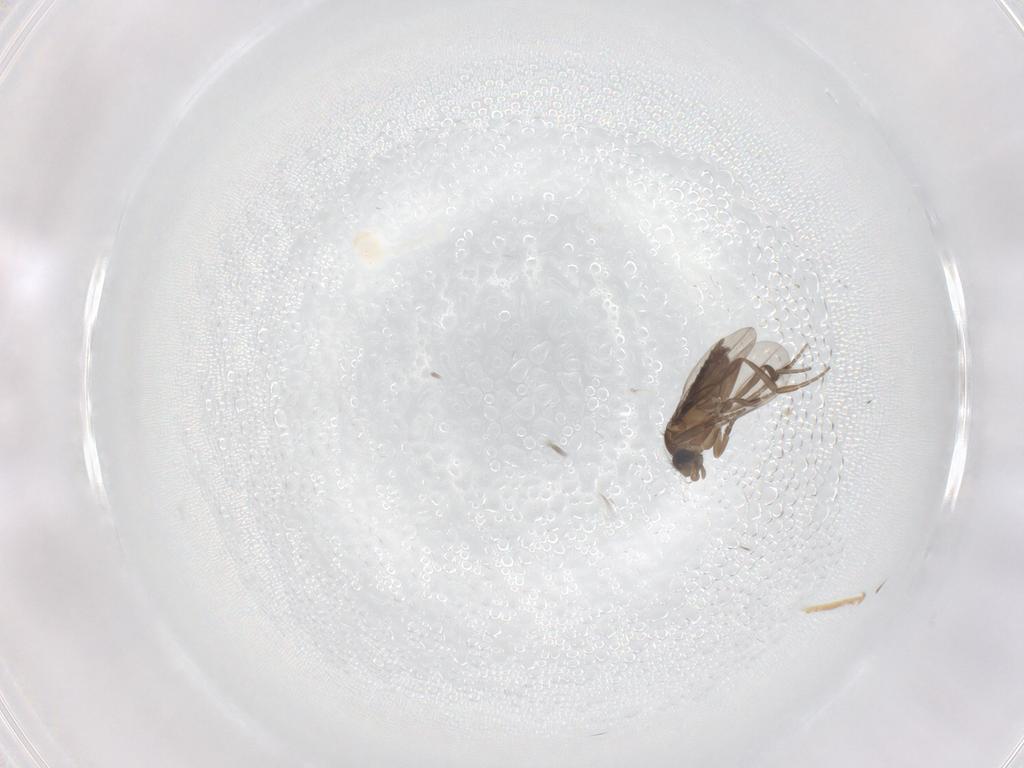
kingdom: Animalia
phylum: Arthropoda
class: Insecta
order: Diptera
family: Phoridae
